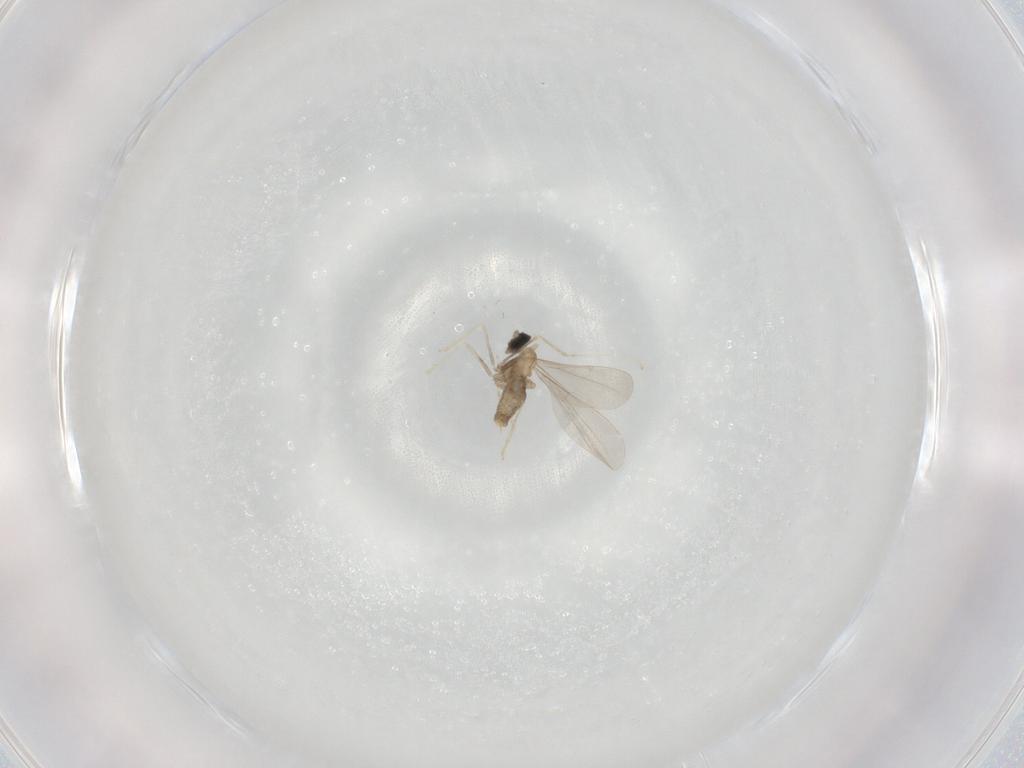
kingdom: Animalia
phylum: Arthropoda
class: Insecta
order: Diptera
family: Cecidomyiidae
